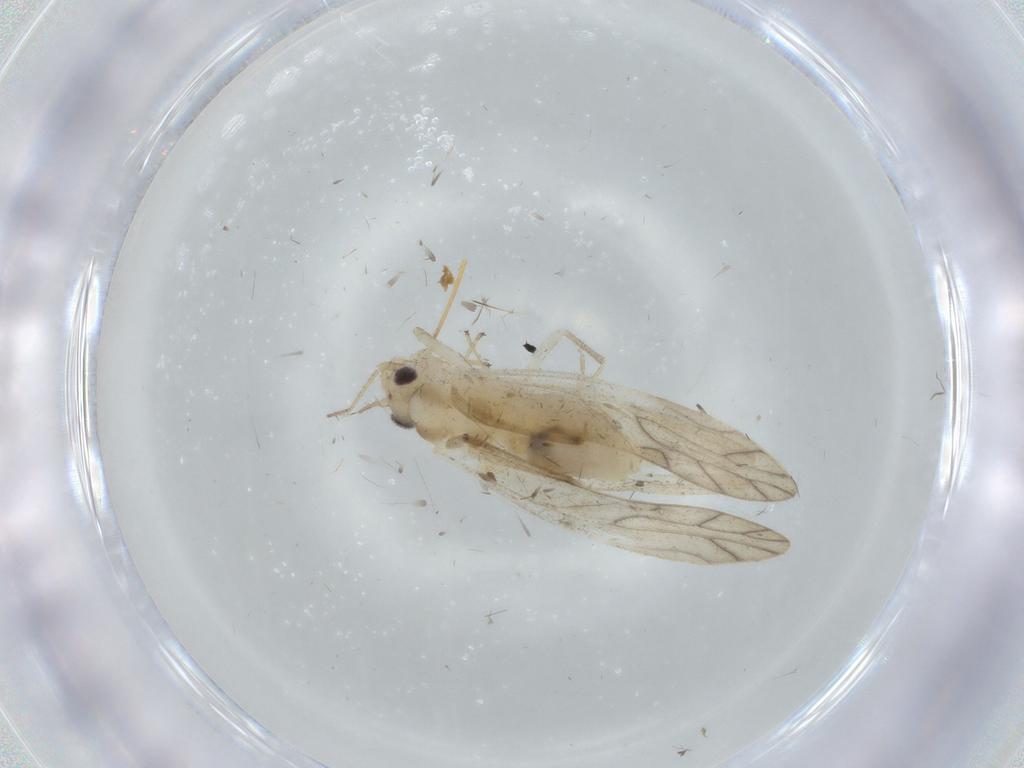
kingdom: Animalia
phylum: Arthropoda
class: Insecta
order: Psocodea
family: Caeciliusidae
